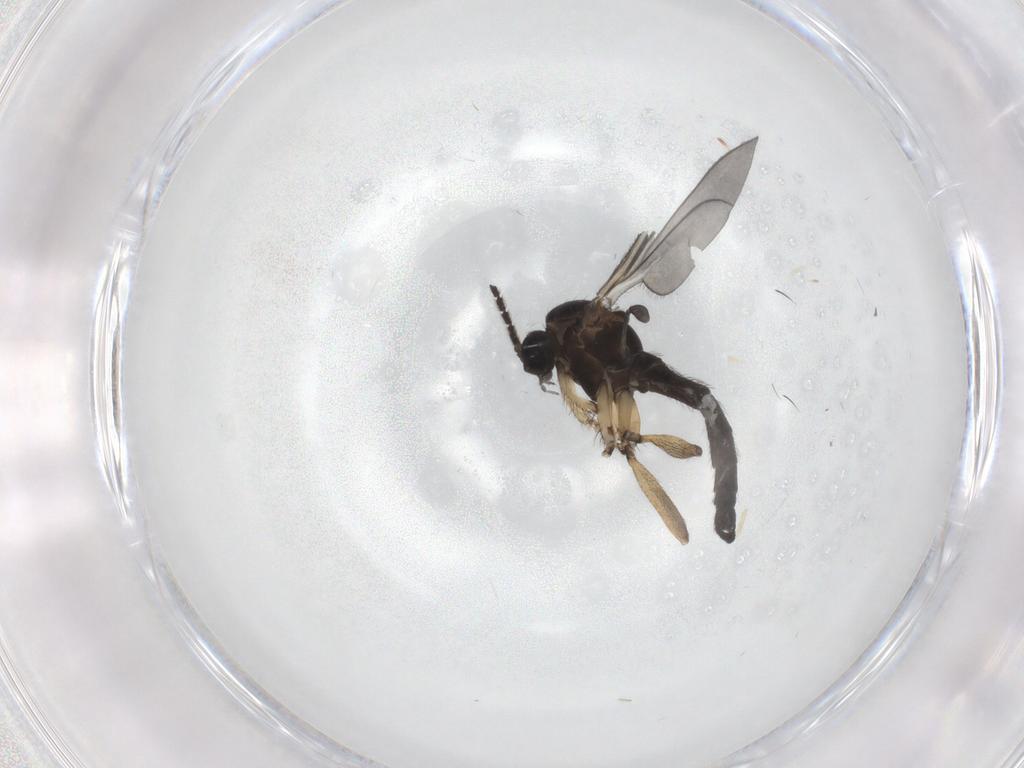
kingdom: Animalia
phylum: Arthropoda
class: Insecta
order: Diptera
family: Sciaridae
